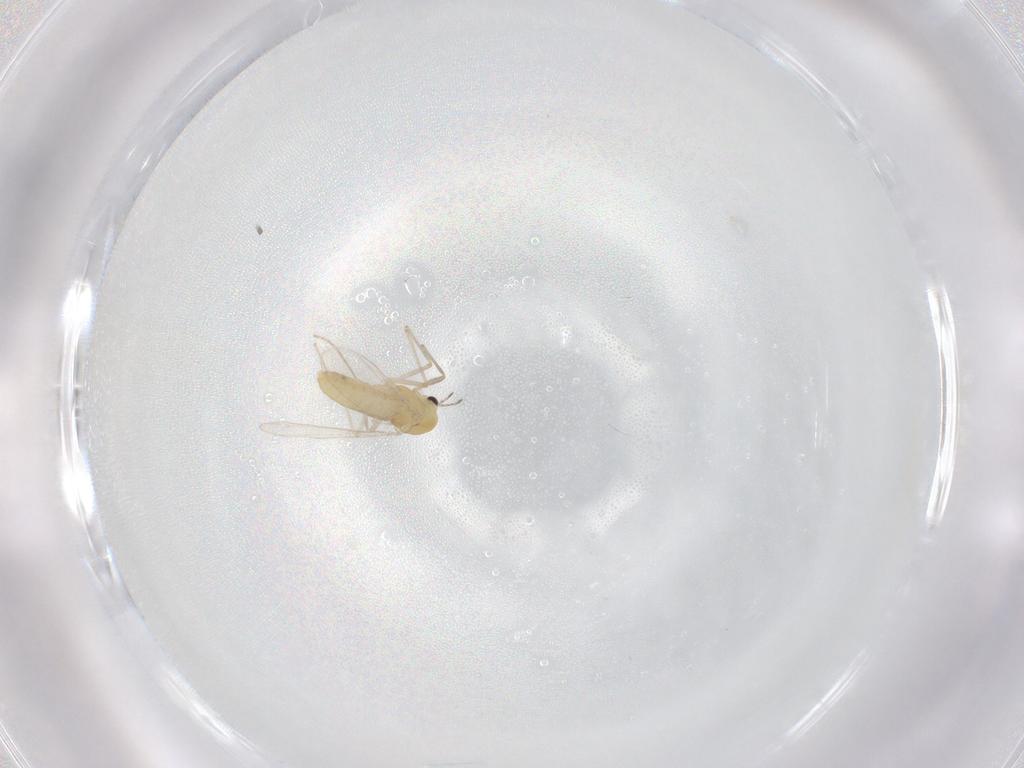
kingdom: Animalia
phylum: Arthropoda
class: Insecta
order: Diptera
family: Chironomidae
